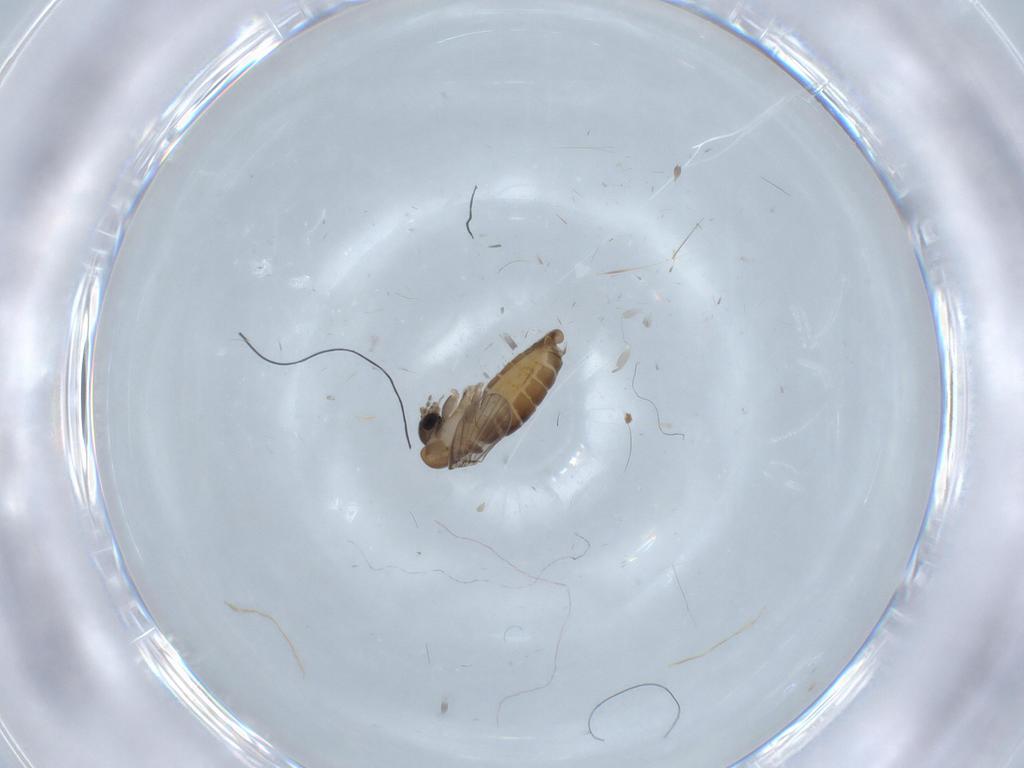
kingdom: Animalia
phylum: Arthropoda
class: Insecta
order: Diptera
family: Psychodidae
